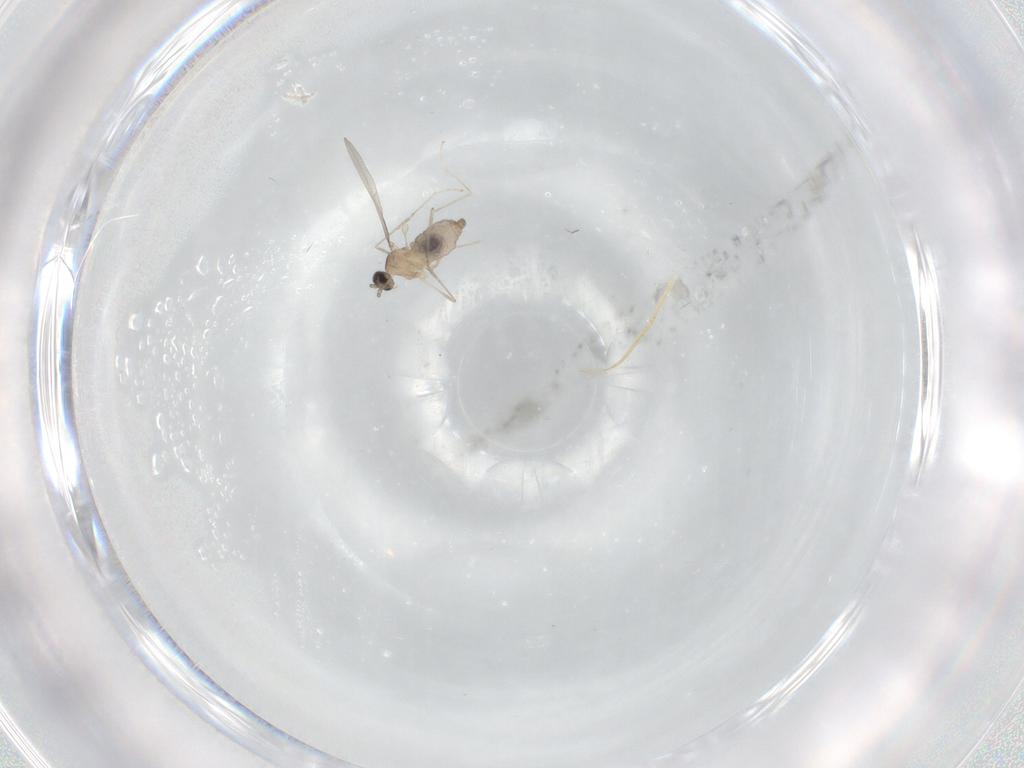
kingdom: Animalia
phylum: Arthropoda
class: Insecta
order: Diptera
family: Cecidomyiidae
